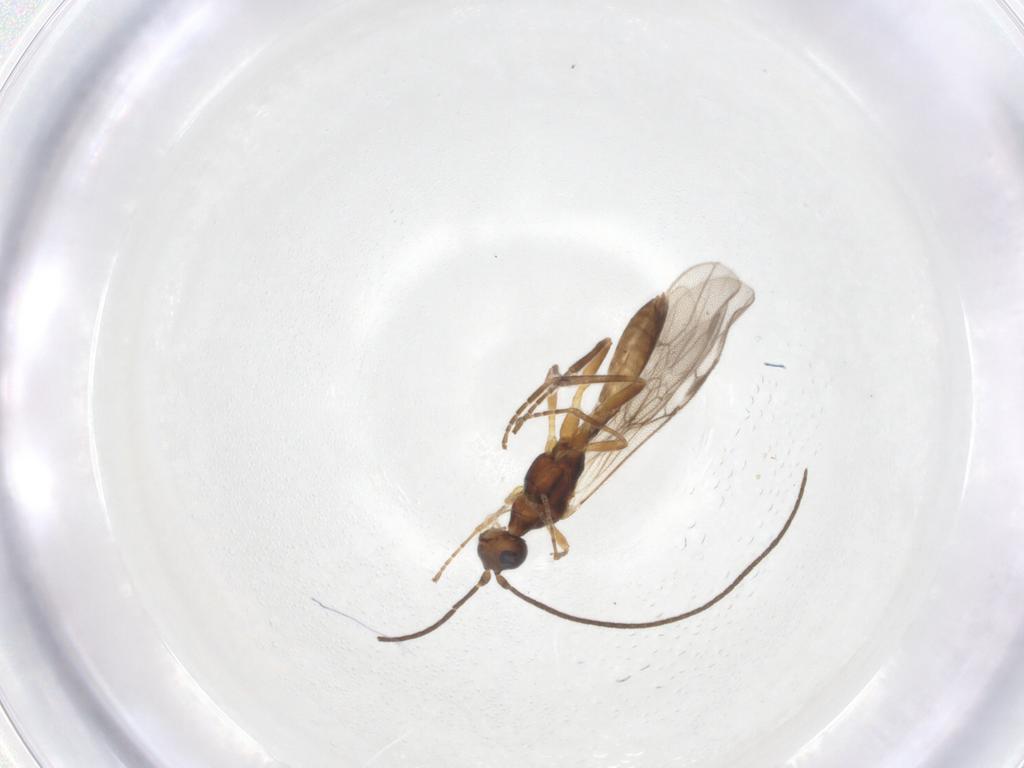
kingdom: Animalia
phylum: Arthropoda
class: Insecta
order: Hymenoptera
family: Braconidae
